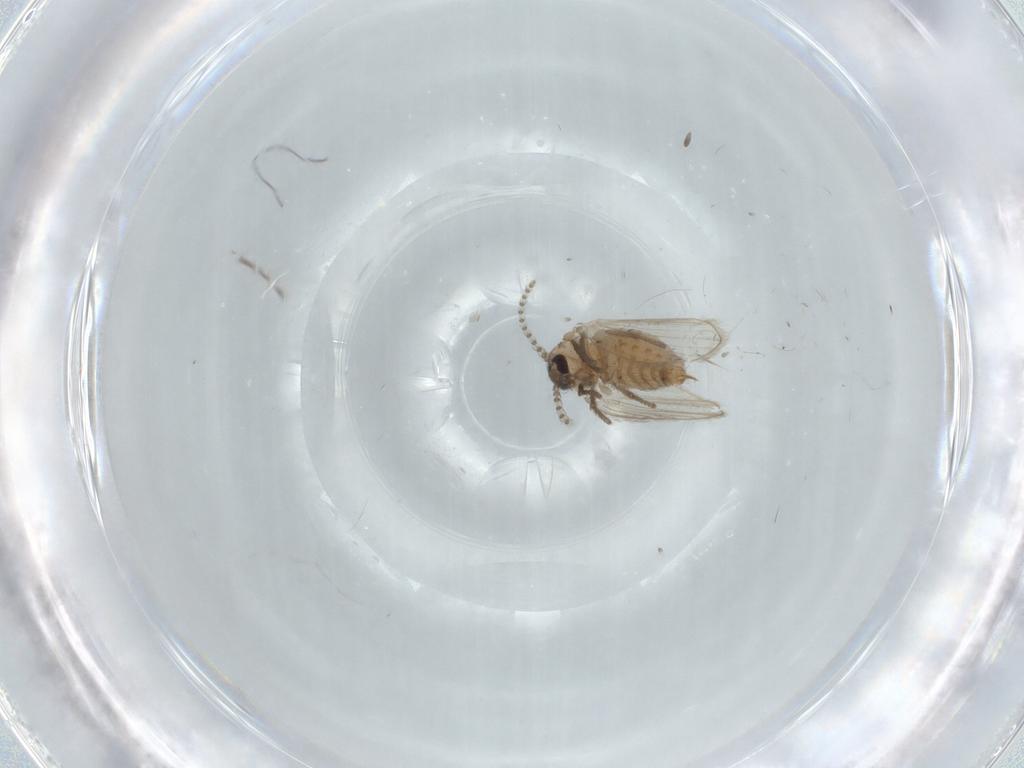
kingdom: Animalia
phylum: Arthropoda
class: Insecta
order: Diptera
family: Psychodidae
